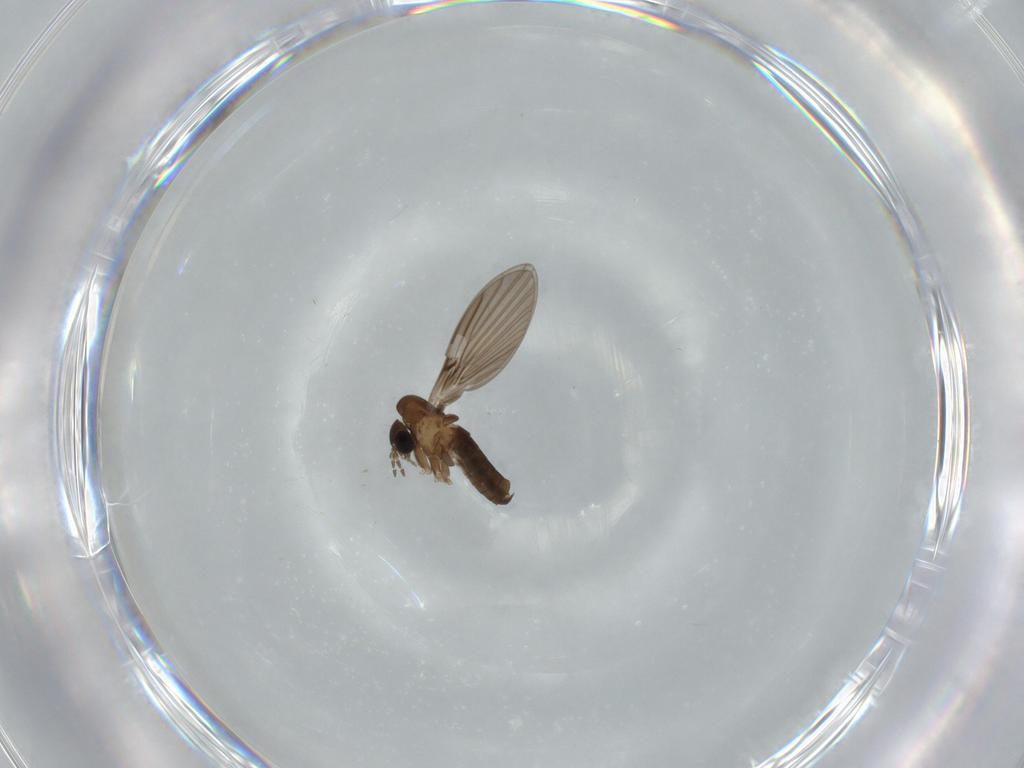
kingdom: Animalia
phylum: Arthropoda
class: Insecta
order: Diptera
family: Psychodidae
